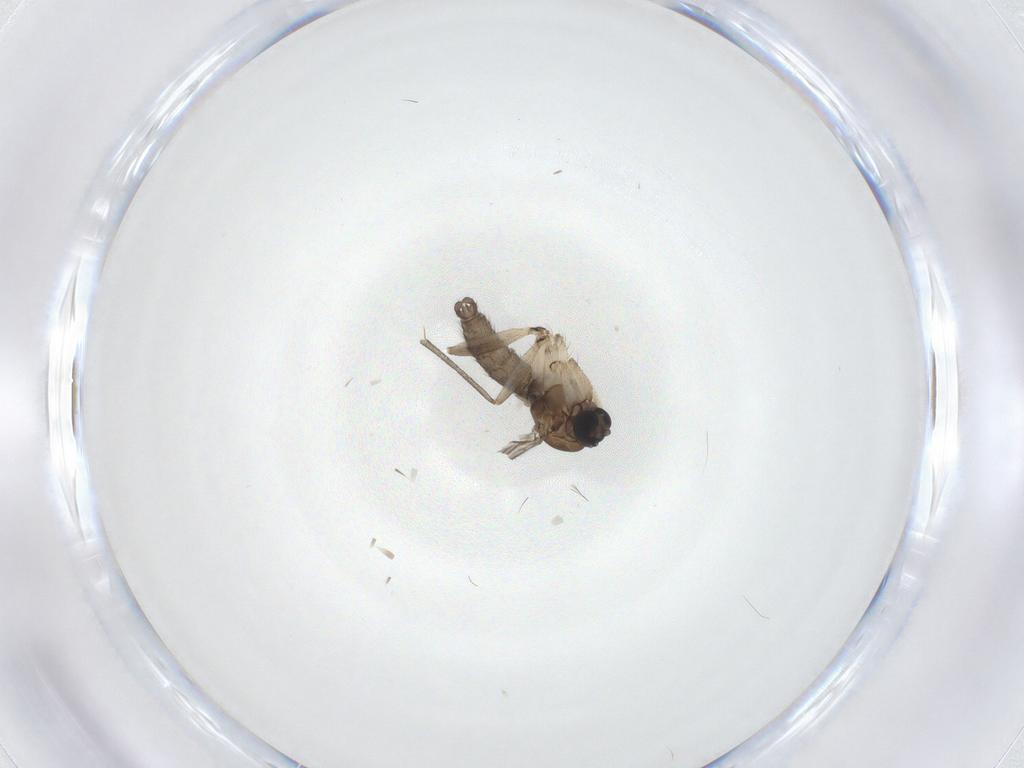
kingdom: Animalia
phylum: Arthropoda
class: Insecta
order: Diptera
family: Sciaridae
